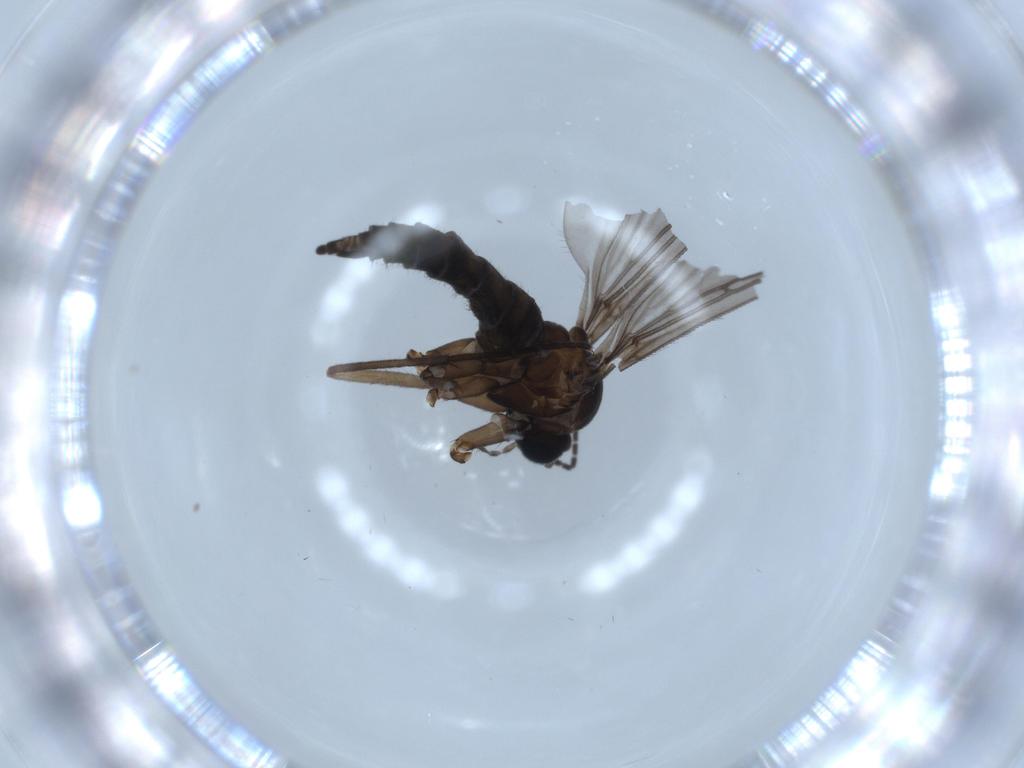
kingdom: Animalia
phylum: Arthropoda
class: Insecta
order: Diptera
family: Sciaridae
